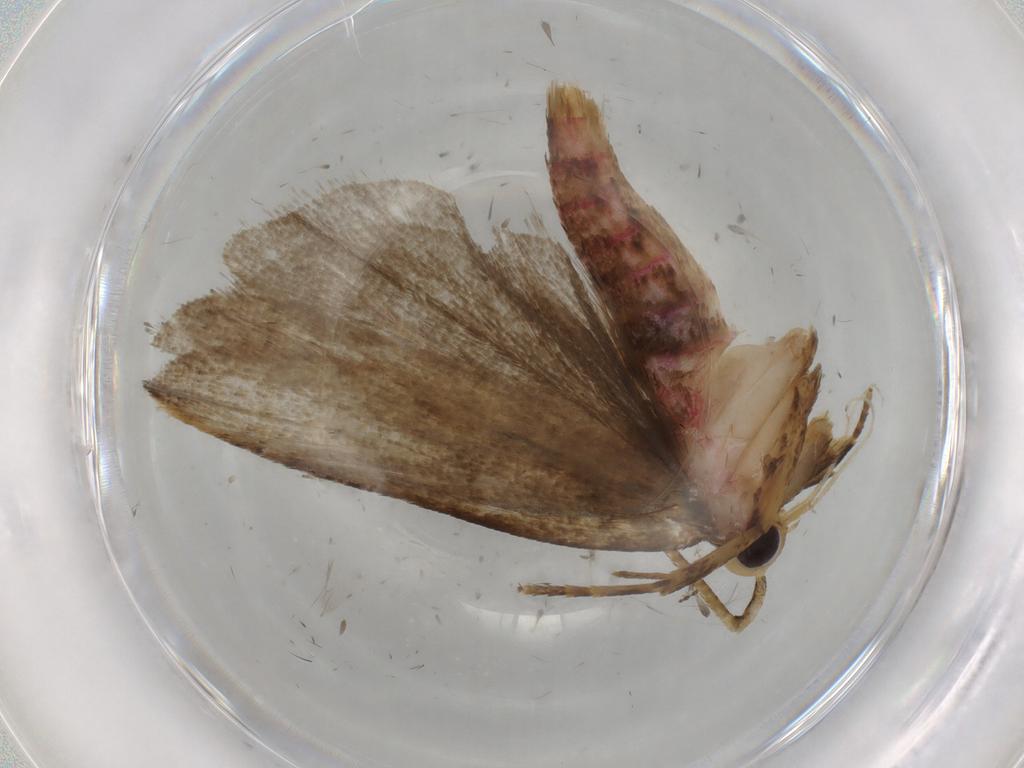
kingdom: Animalia
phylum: Arthropoda
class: Insecta
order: Lepidoptera
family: Autostichidae
